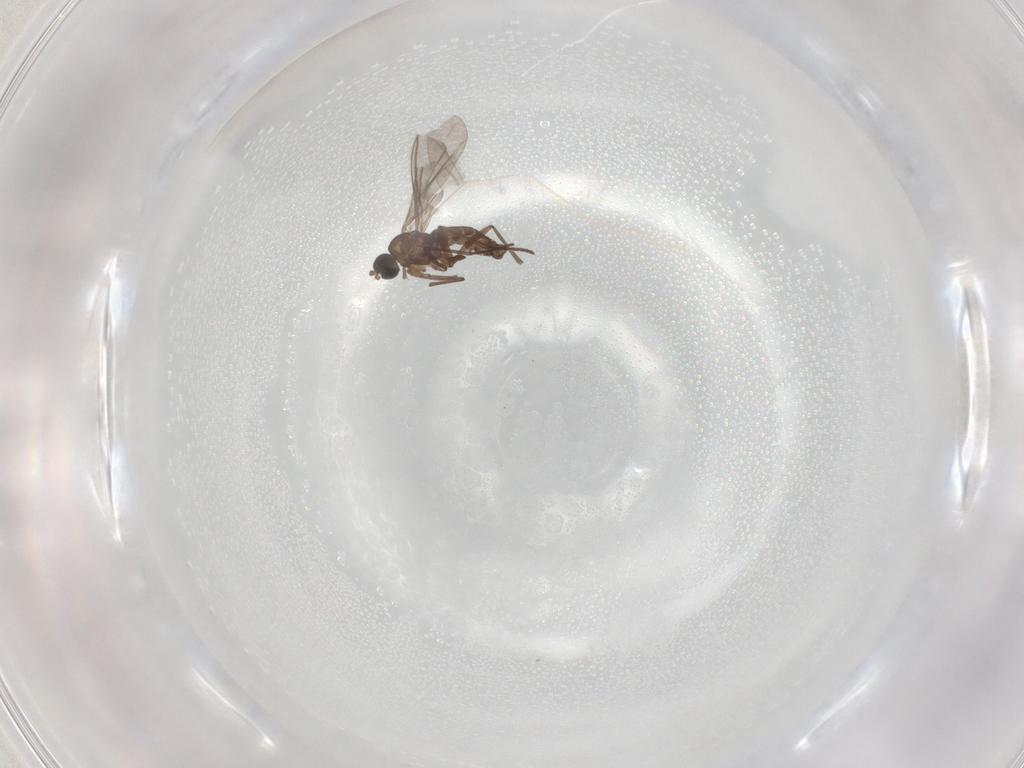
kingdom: Animalia
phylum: Arthropoda
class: Insecta
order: Diptera
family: Sciaridae
